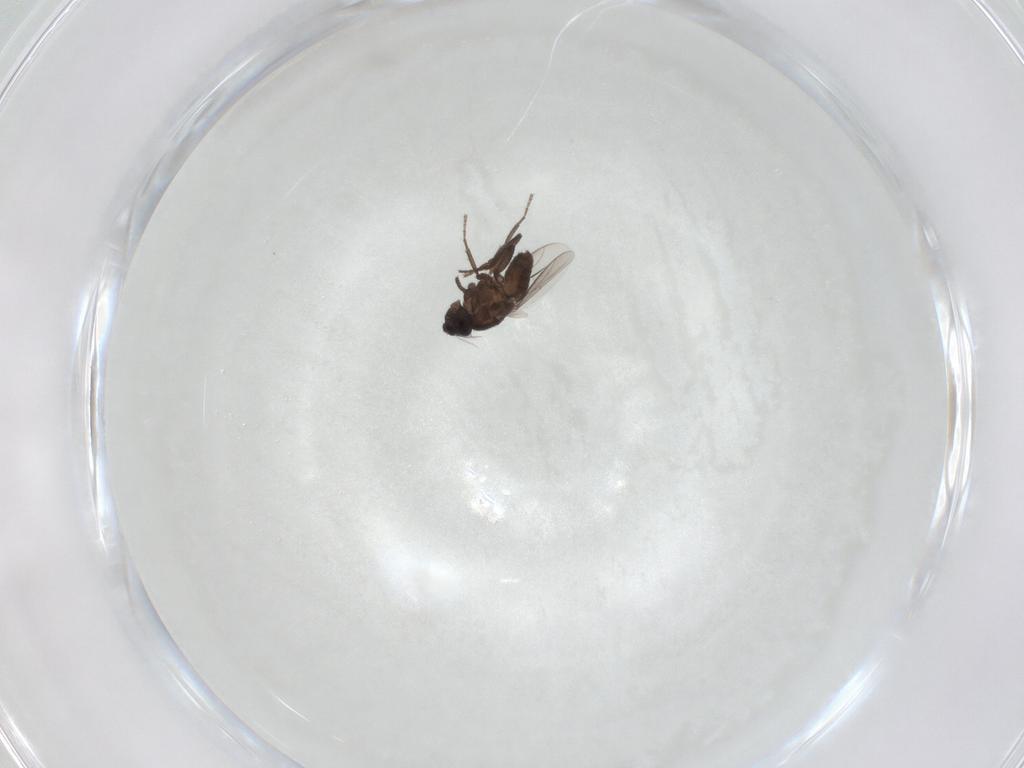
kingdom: Animalia
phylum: Arthropoda
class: Insecta
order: Diptera
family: Sphaeroceridae
